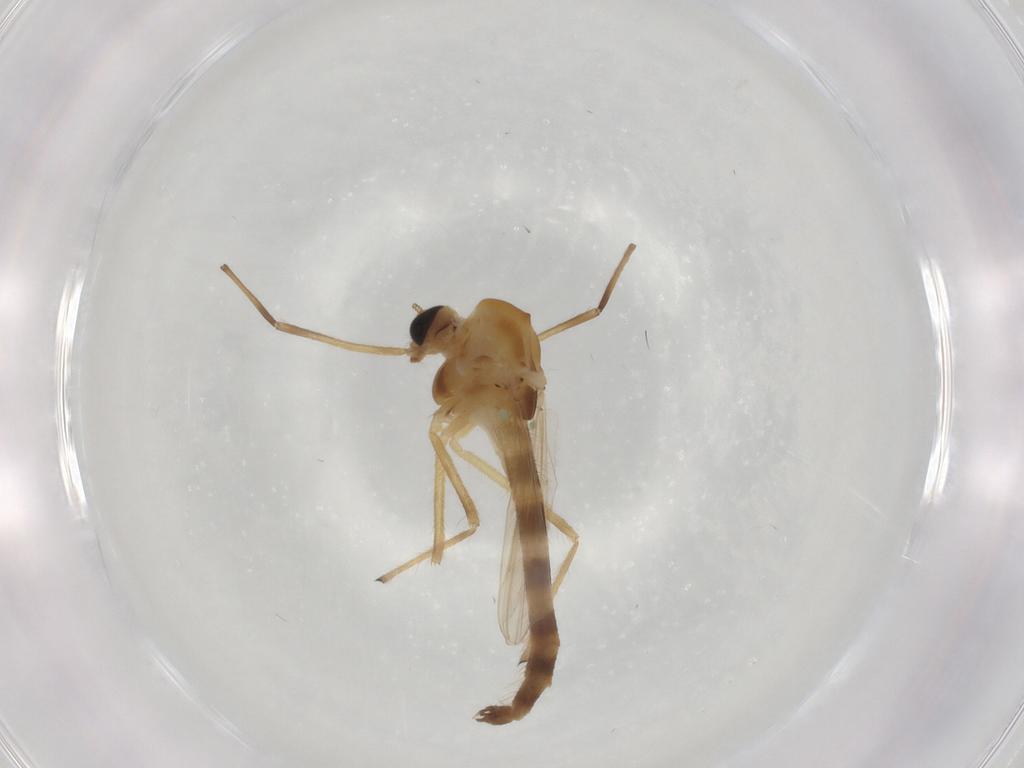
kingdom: Animalia
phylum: Arthropoda
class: Insecta
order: Diptera
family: Chironomidae
